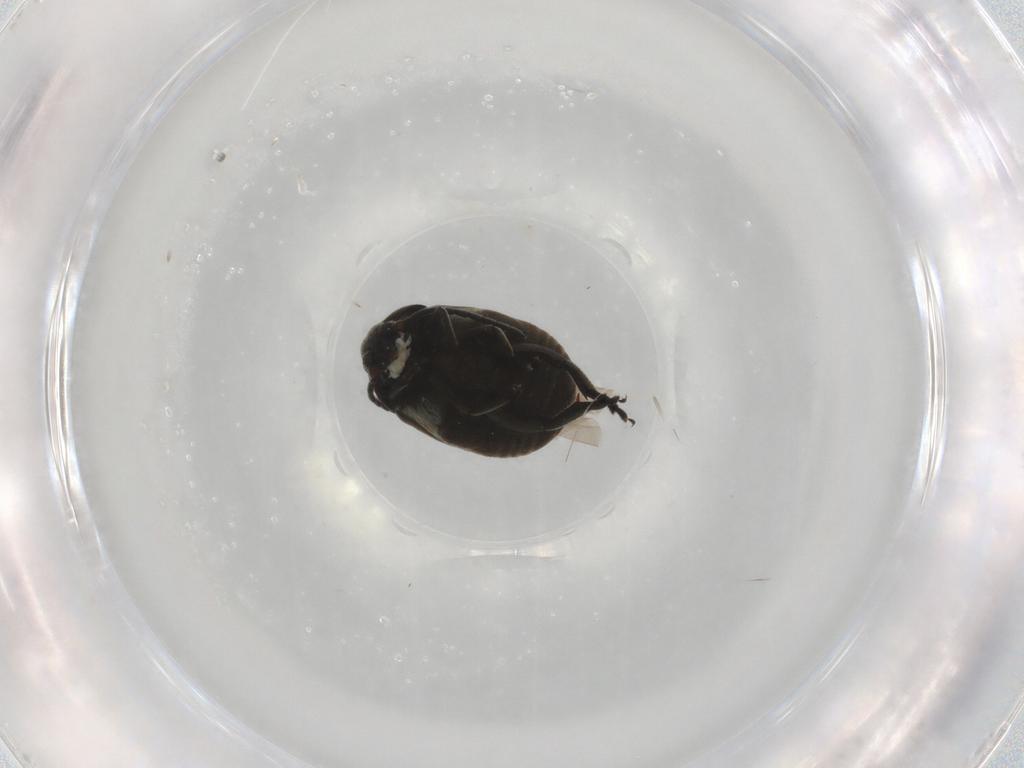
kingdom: Animalia
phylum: Arthropoda
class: Insecta
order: Coleoptera
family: Chrysomelidae
